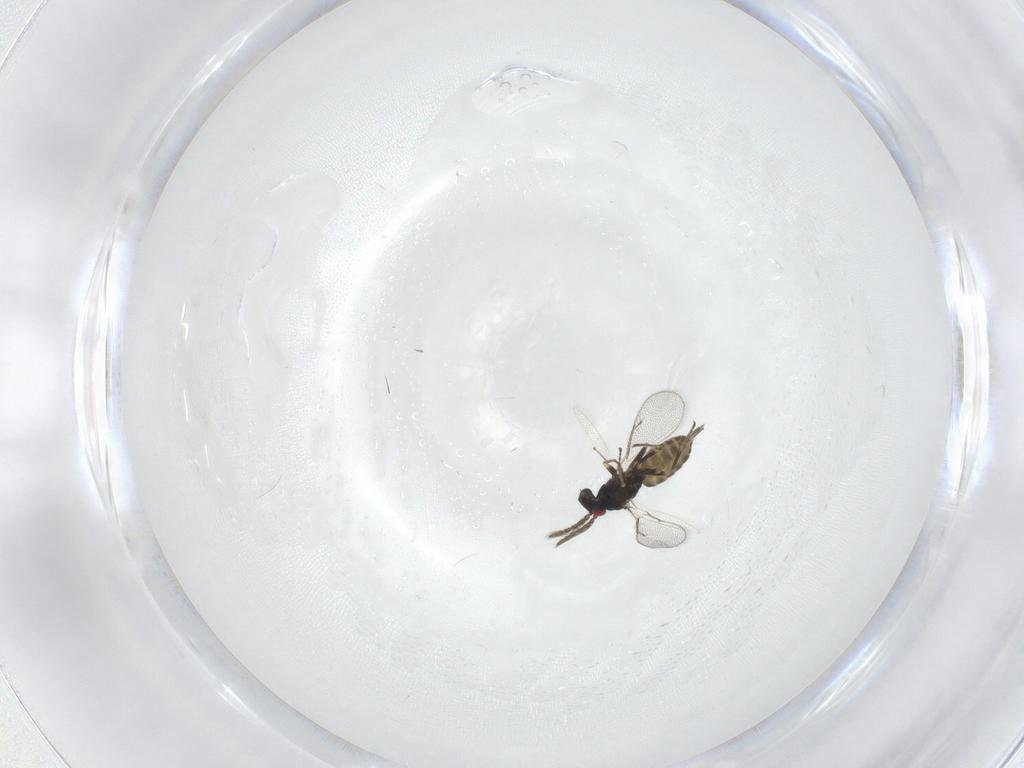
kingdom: Animalia
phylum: Arthropoda
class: Insecta
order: Hymenoptera
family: Eulophidae
